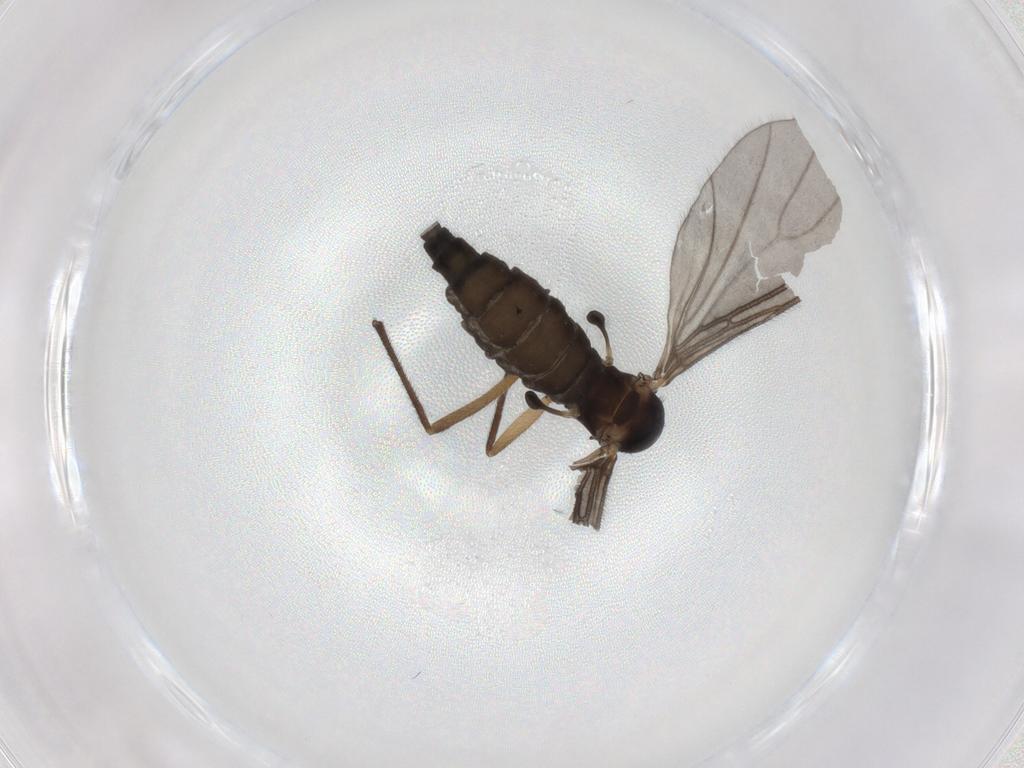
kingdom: Animalia
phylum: Arthropoda
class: Insecta
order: Diptera
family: Sciaridae
